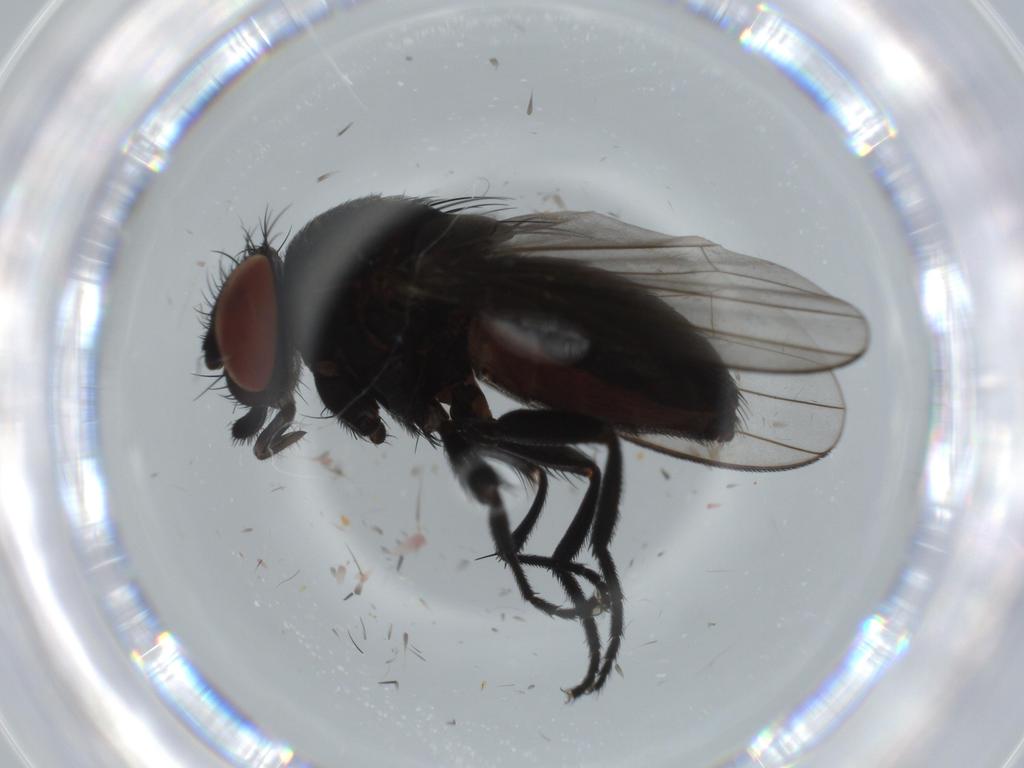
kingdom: Animalia
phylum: Arthropoda
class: Insecta
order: Diptera
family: Milichiidae
